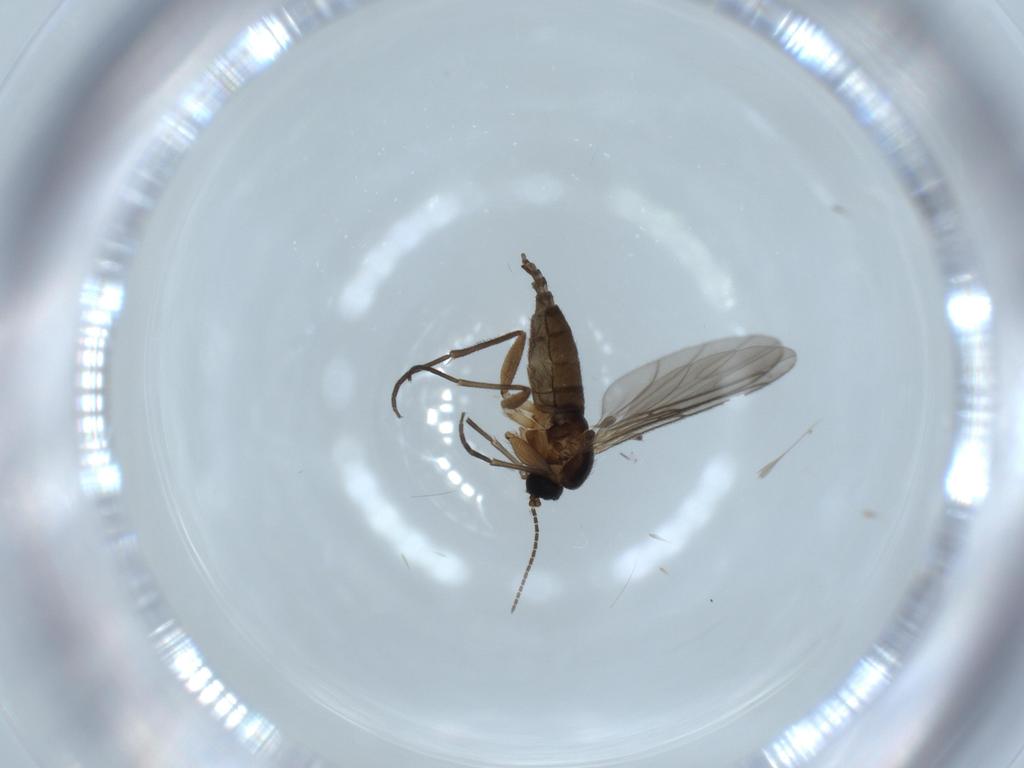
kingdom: Animalia
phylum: Arthropoda
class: Insecta
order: Diptera
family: Sciaridae
